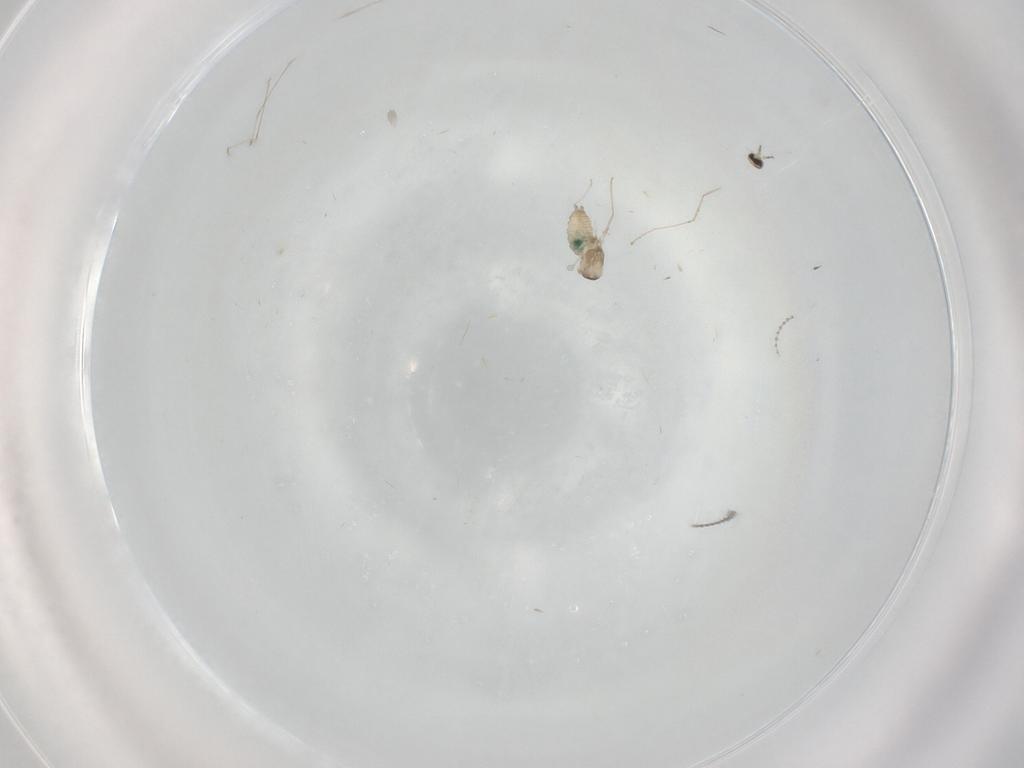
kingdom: Animalia
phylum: Arthropoda
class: Insecta
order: Diptera
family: Cecidomyiidae
